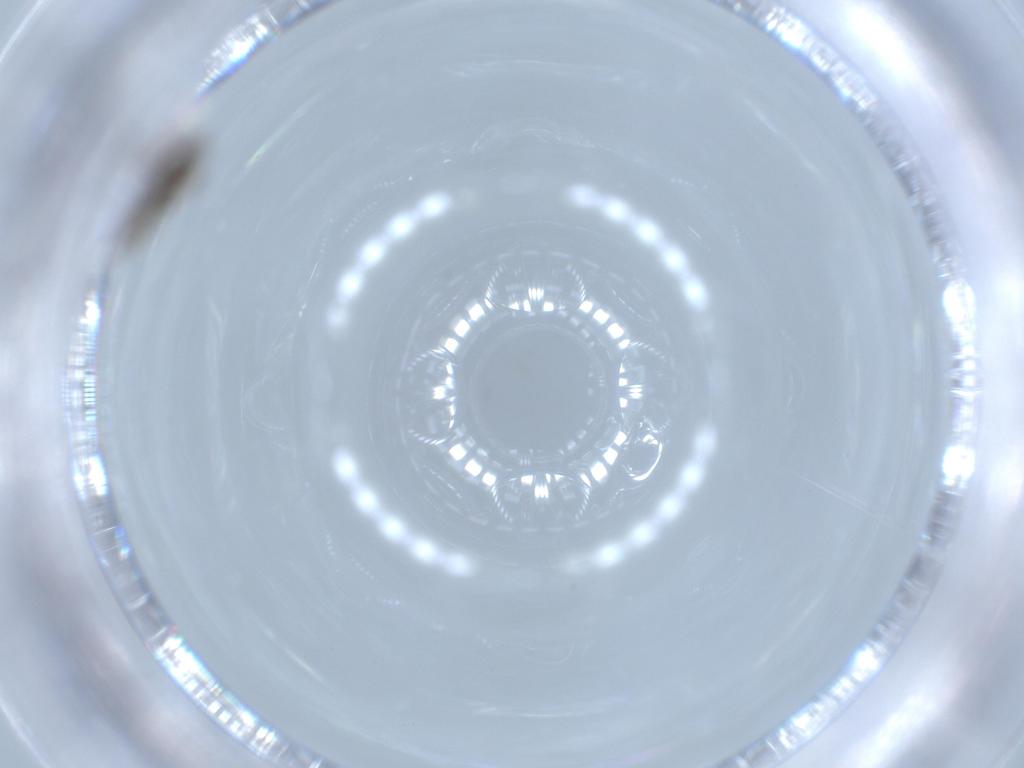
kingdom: Animalia
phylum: Arthropoda
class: Insecta
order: Diptera
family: Chironomidae
